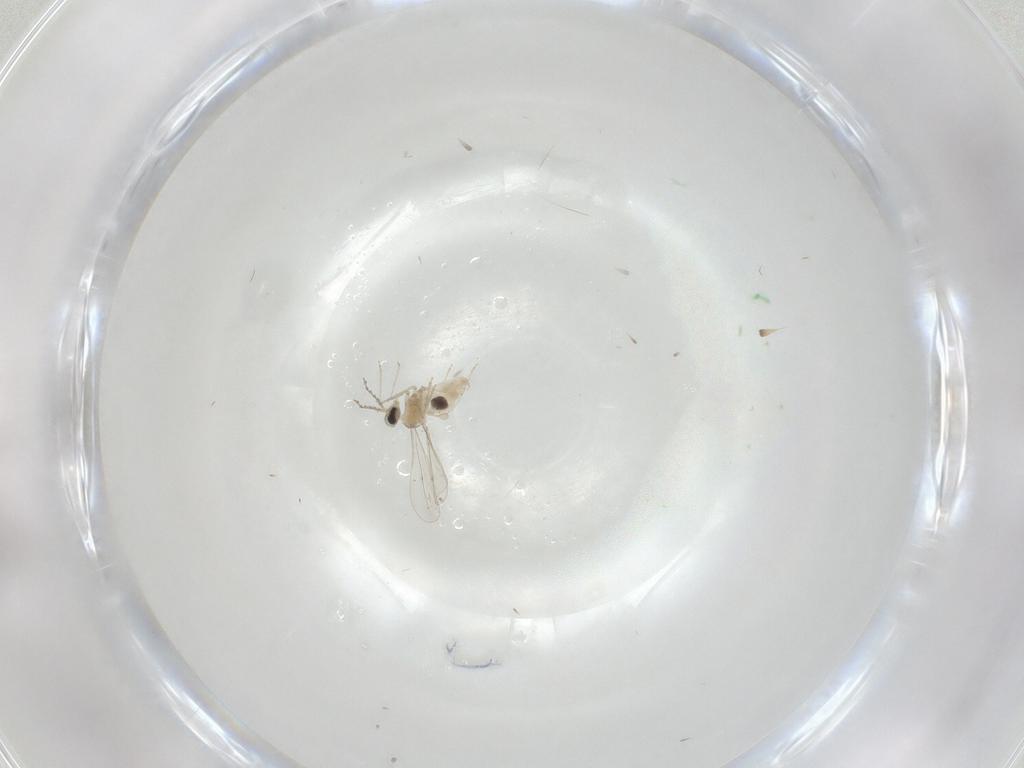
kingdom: Animalia
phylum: Arthropoda
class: Insecta
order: Diptera
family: Cecidomyiidae
